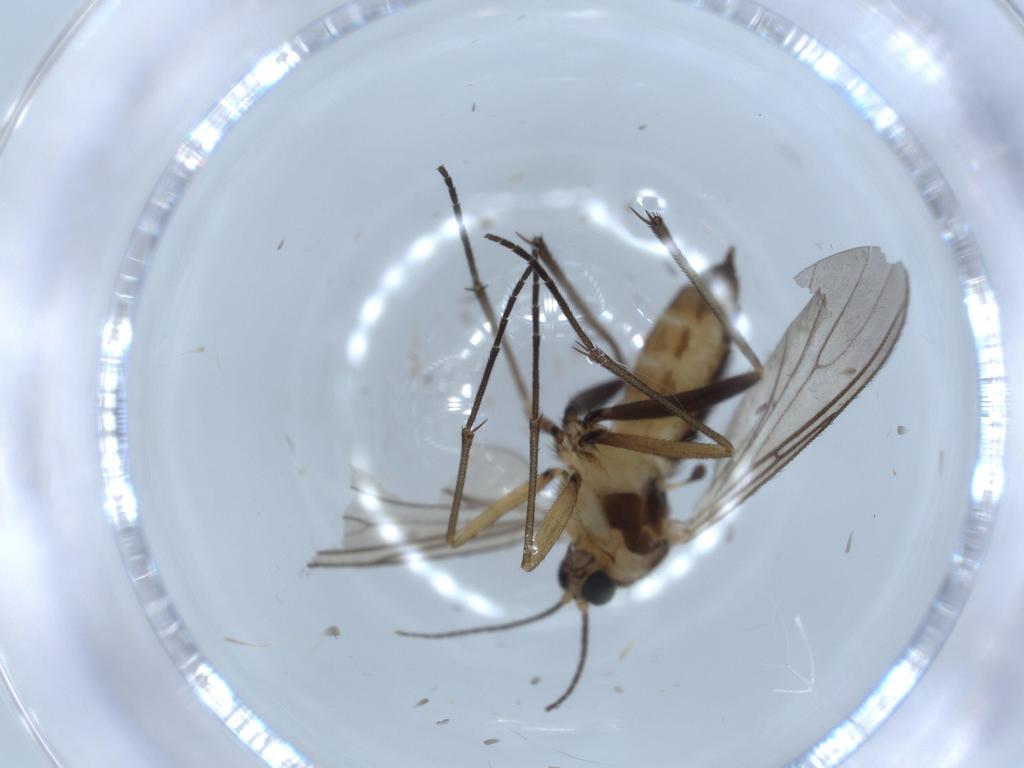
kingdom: Animalia
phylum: Arthropoda
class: Insecta
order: Diptera
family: Sciaridae
